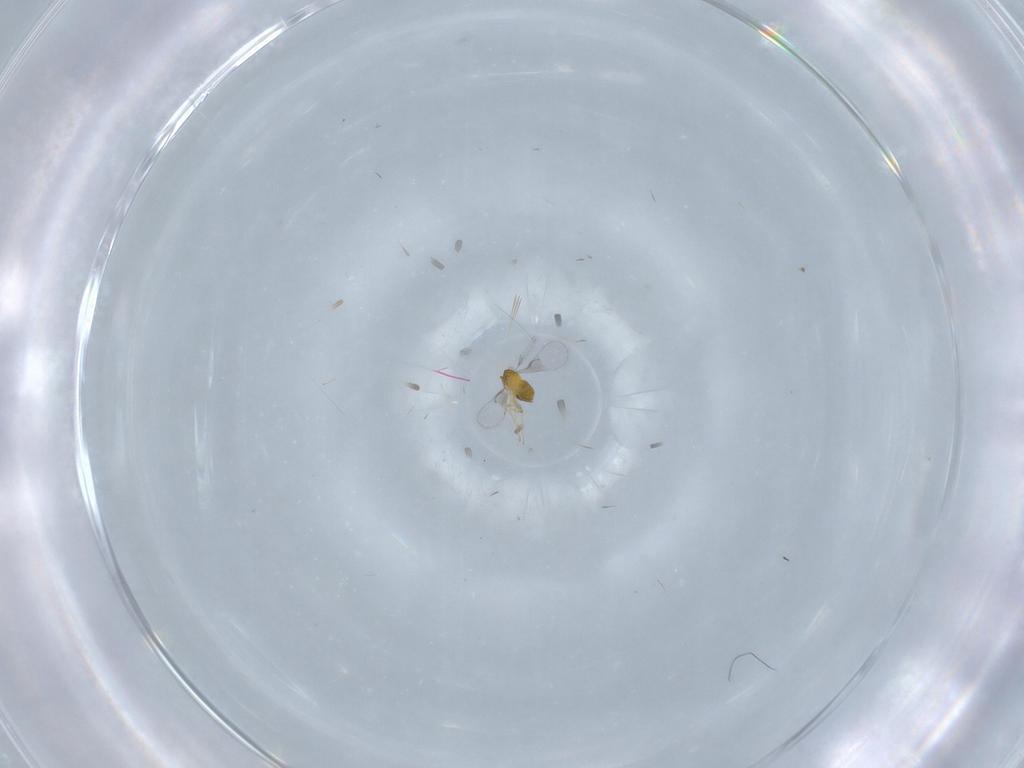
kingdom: Animalia
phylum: Arthropoda
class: Insecta
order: Hymenoptera
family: Trichogrammatidae
